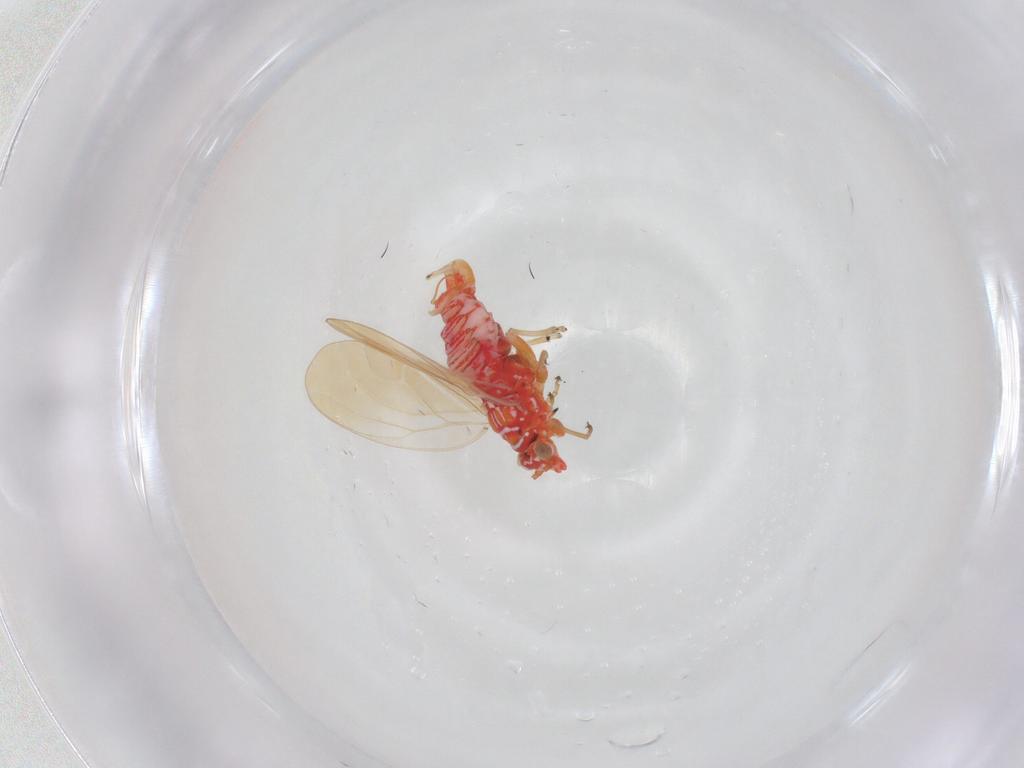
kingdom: Animalia
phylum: Arthropoda
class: Insecta
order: Hemiptera
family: Psyllidae
